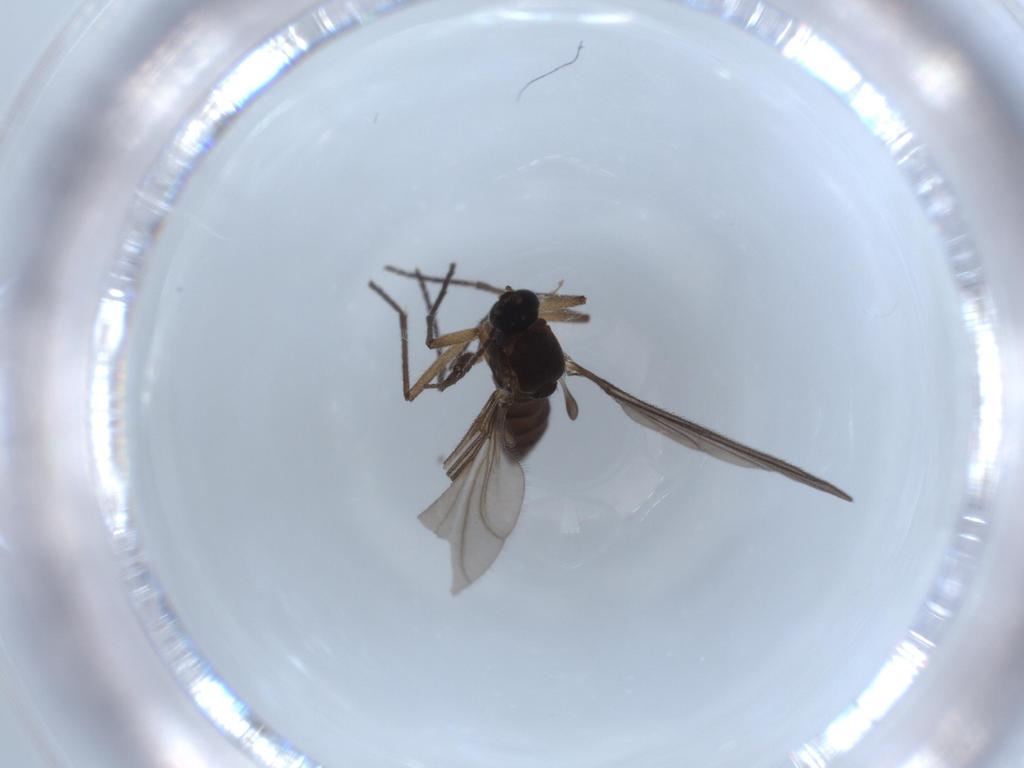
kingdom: Animalia
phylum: Arthropoda
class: Insecta
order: Diptera
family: Sciaridae
